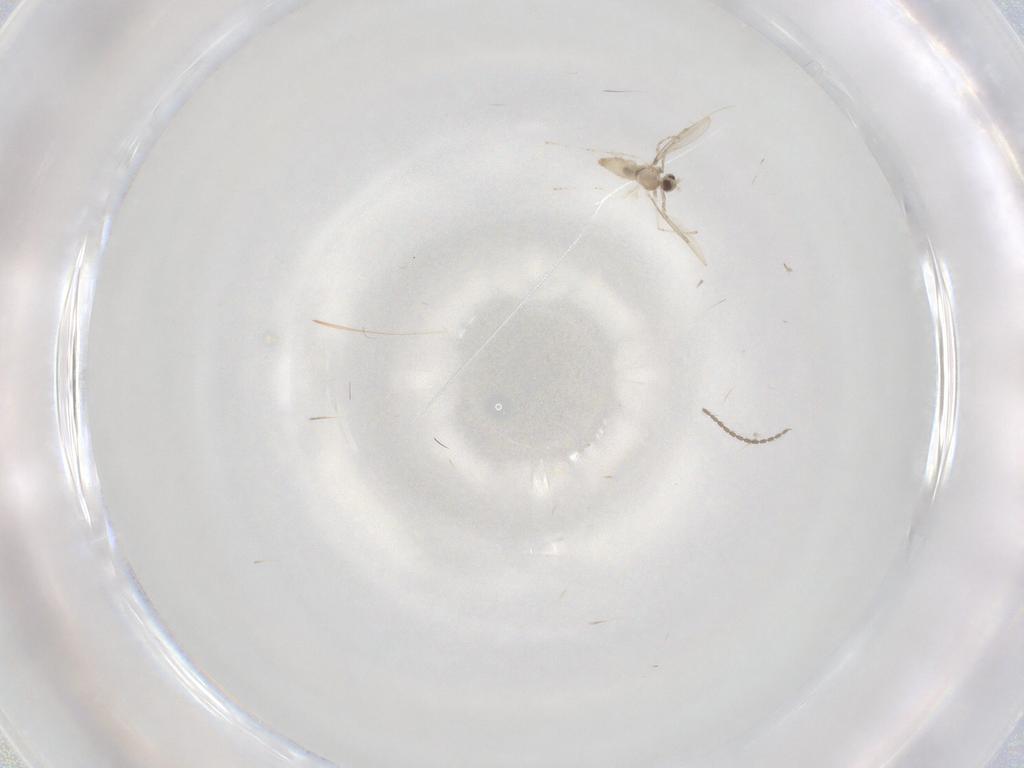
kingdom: Animalia
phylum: Arthropoda
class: Insecta
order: Diptera
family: Cecidomyiidae
